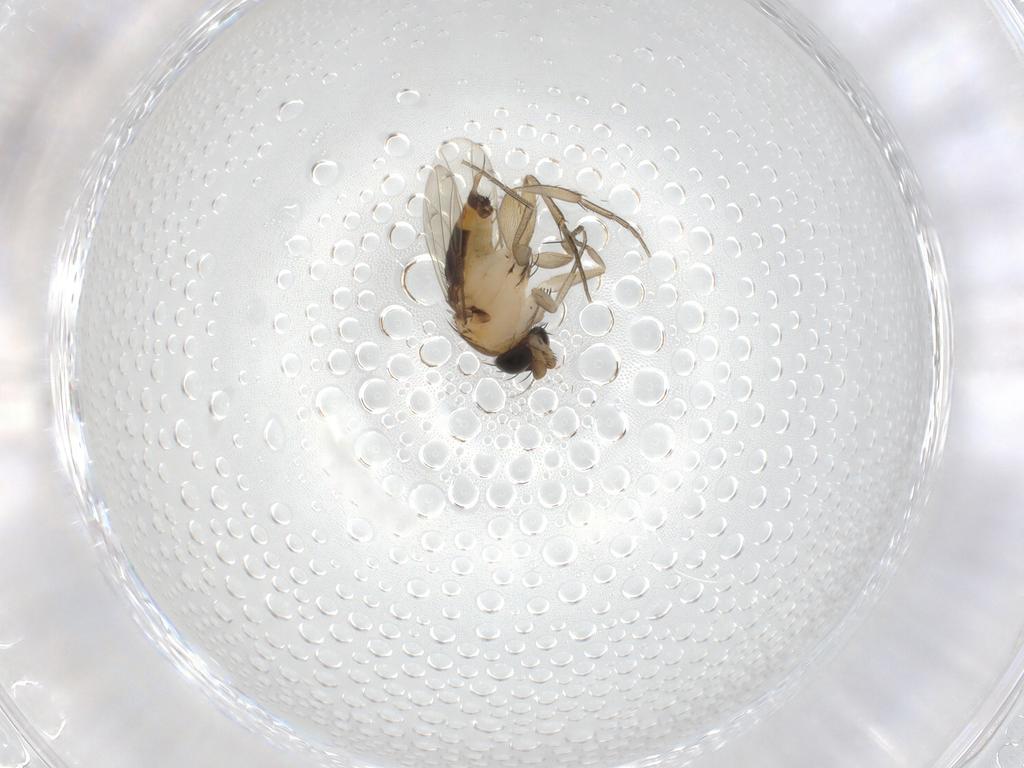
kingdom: Animalia
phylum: Arthropoda
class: Insecta
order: Diptera
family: Phoridae
